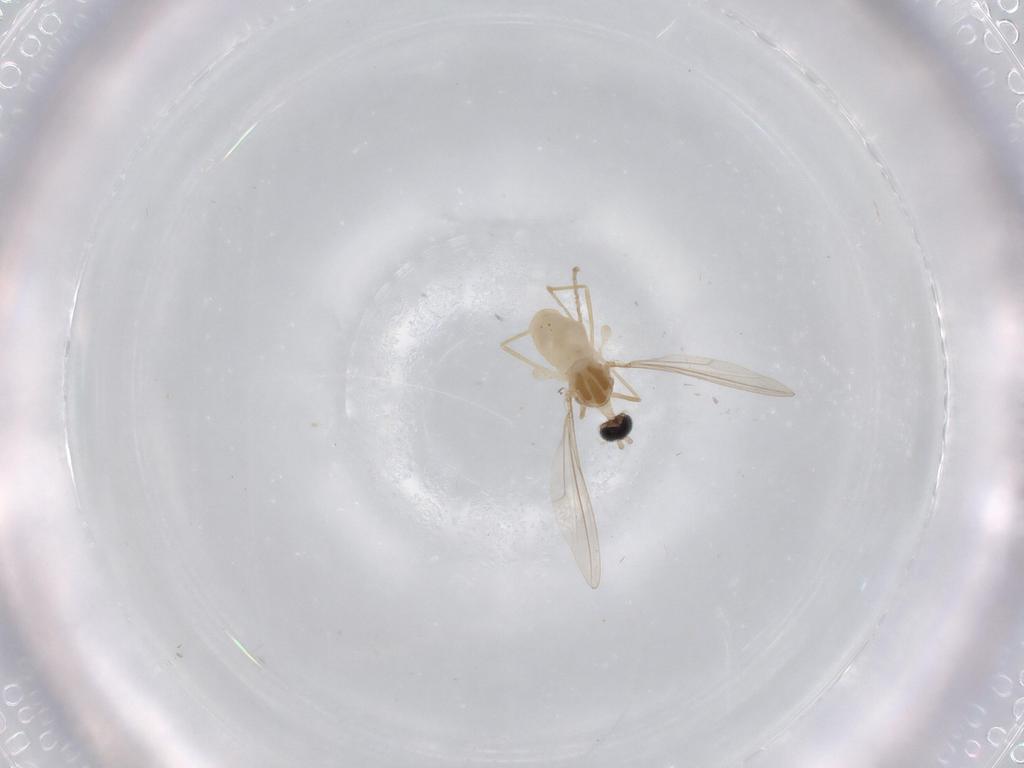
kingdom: Animalia
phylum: Arthropoda
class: Insecta
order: Diptera
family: Cecidomyiidae
